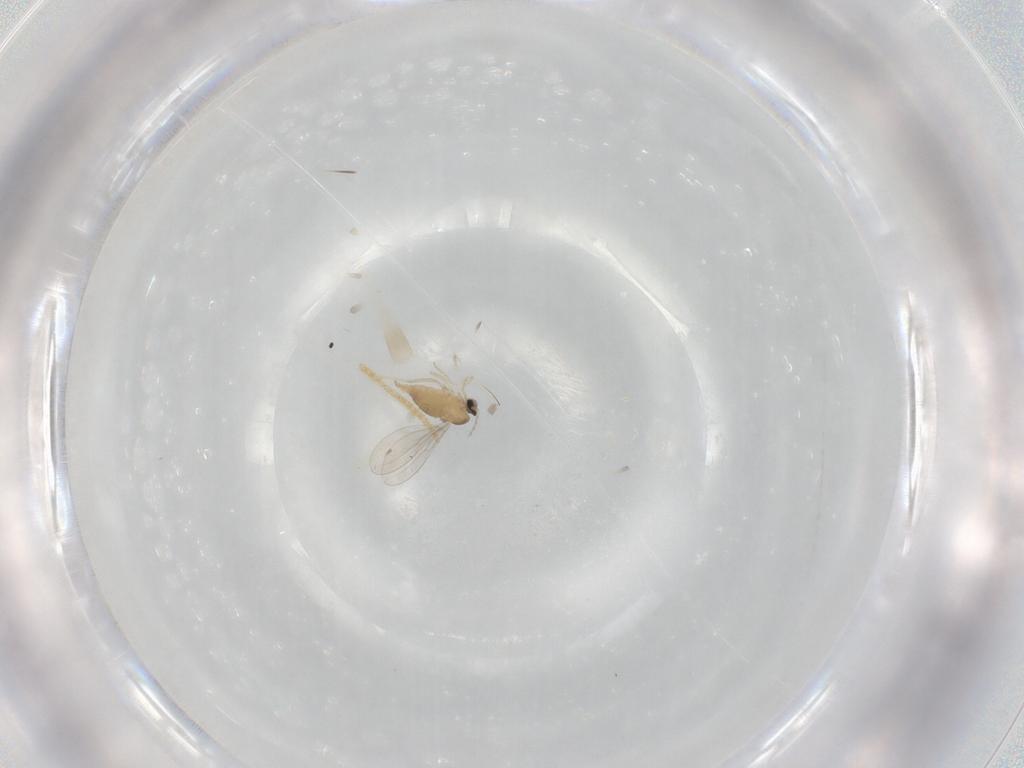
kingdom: Animalia
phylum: Arthropoda
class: Insecta
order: Diptera
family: Cecidomyiidae
